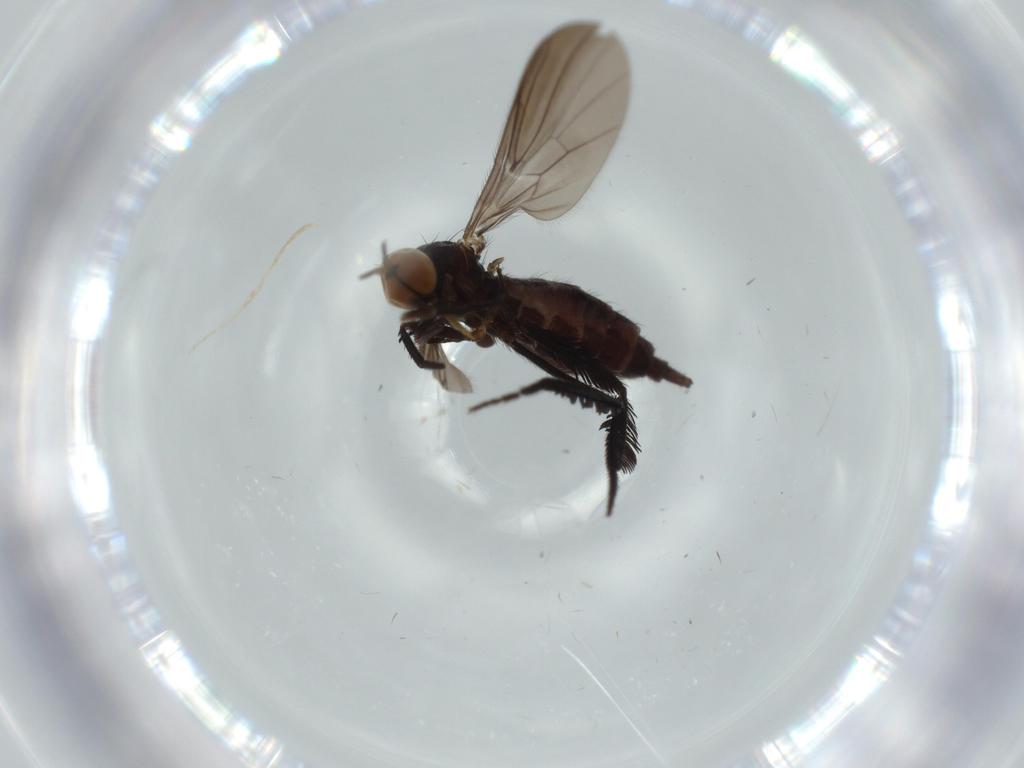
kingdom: Animalia
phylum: Arthropoda
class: Insecta
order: Diptera
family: Empididae
